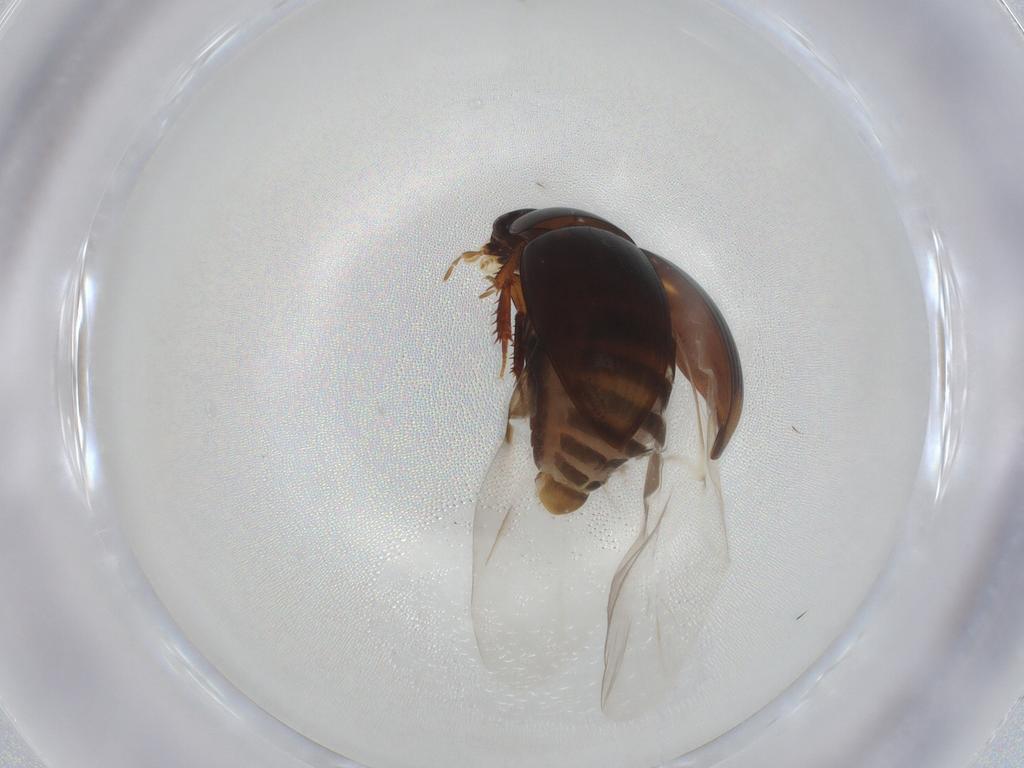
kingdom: Animalia
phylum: Arthropoda
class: Insecta
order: Coleoptera
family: Hydrophilidae
